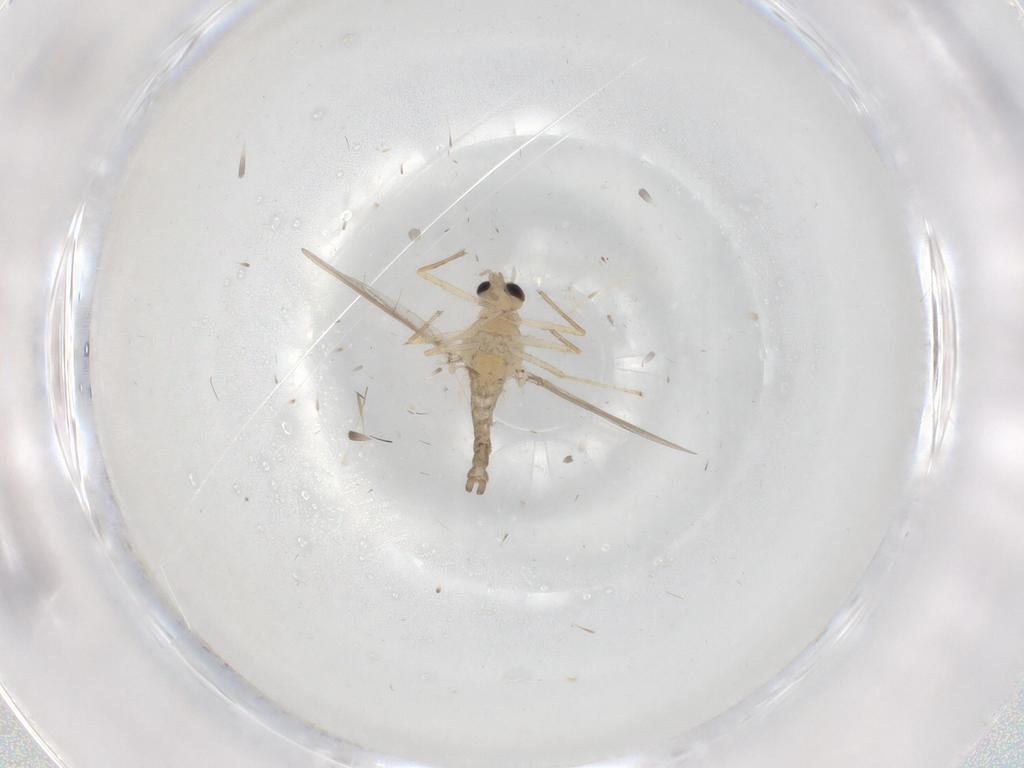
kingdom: Animalia
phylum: Arthropoda
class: Insecta
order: Diptera
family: Chironomidae
